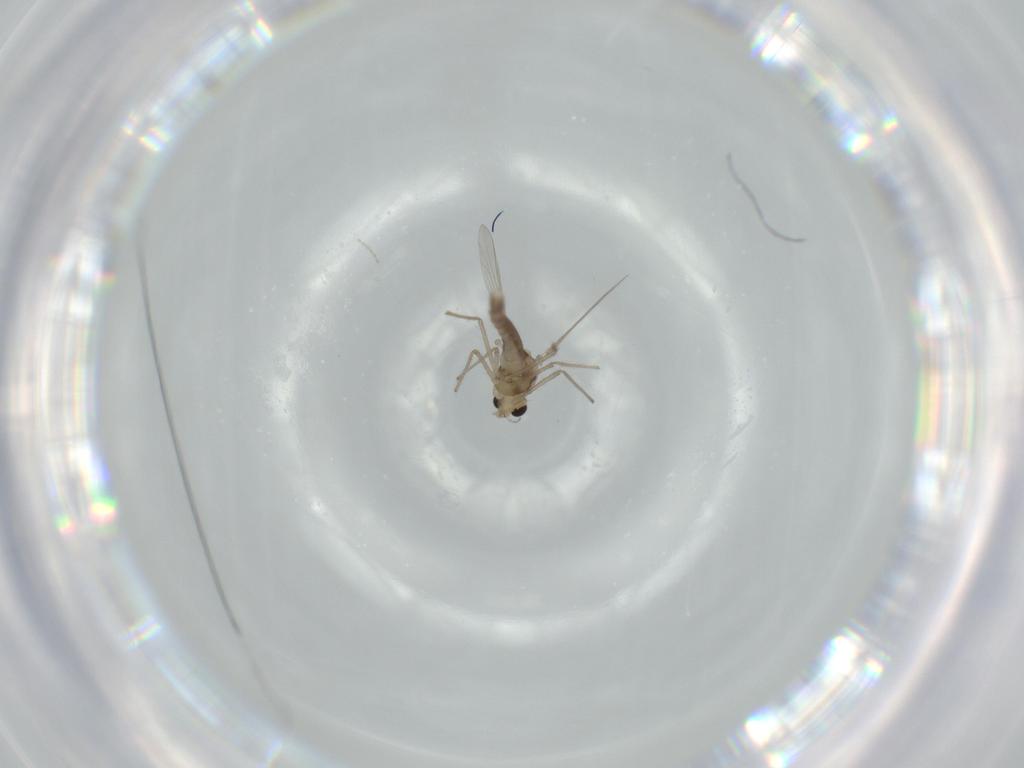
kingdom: Animalia
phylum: Arthropoda
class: Insecta
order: Diptera
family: Chironomidae
